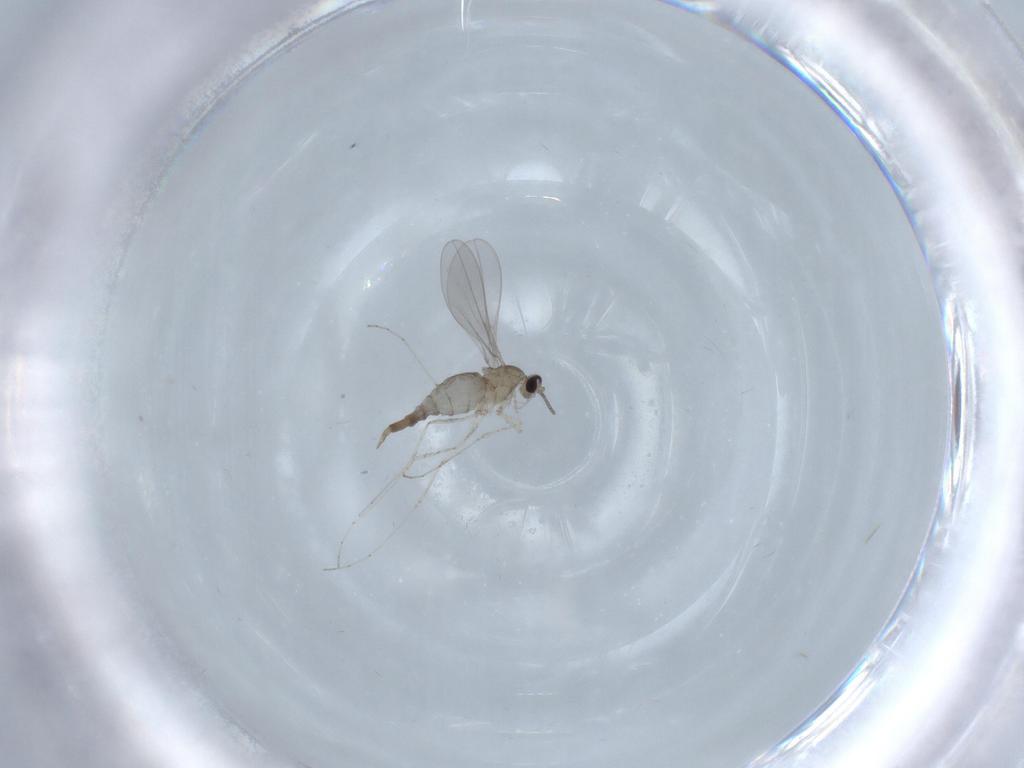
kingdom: Animalia
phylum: Arthropoda
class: Insecta
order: Diptera
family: Cecidomyiidae
